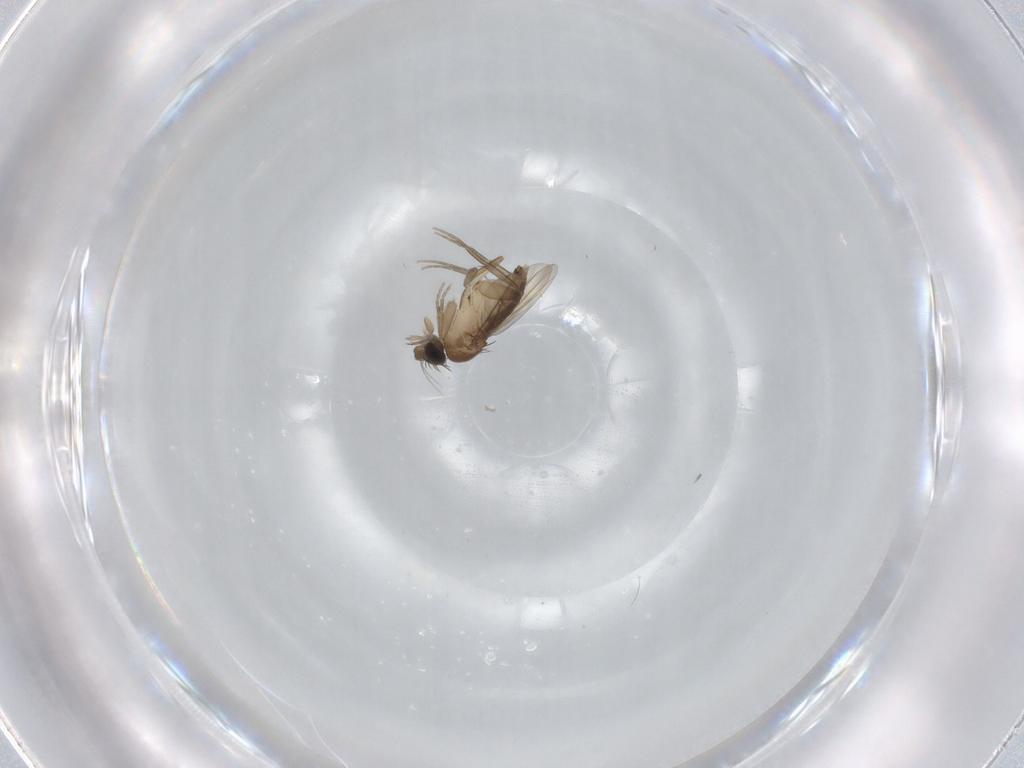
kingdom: Animalia
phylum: Arthropoda
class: Insecta
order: Diptera
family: Phoridae
